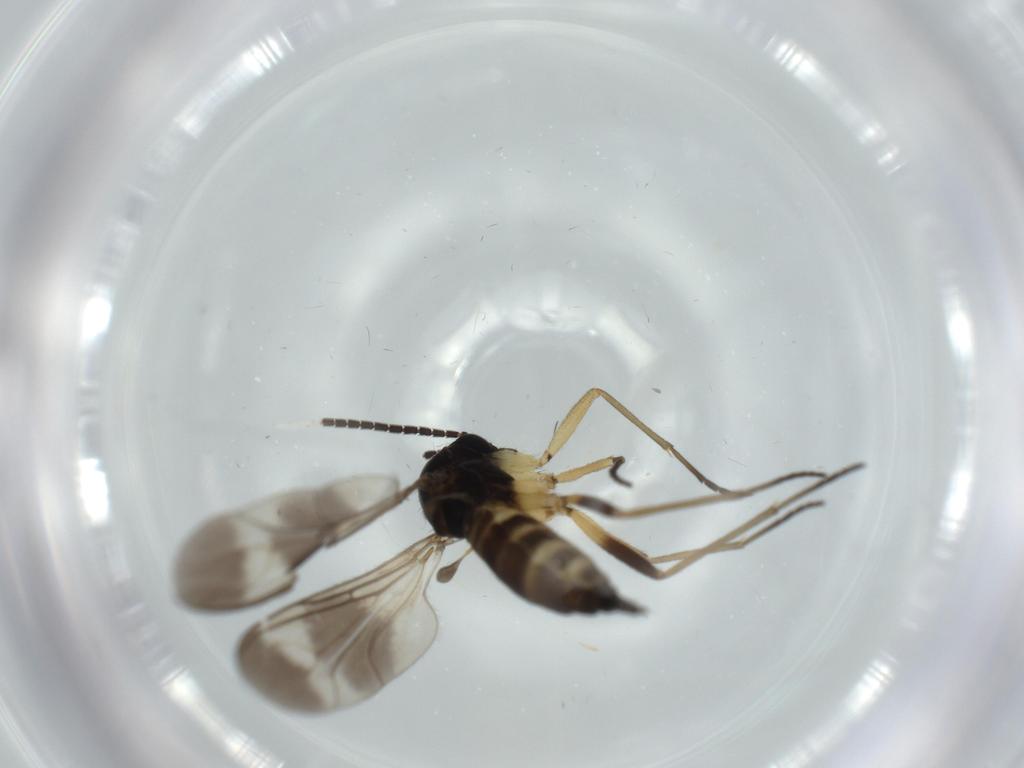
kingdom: Animalia
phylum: Arthropoda
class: Insecta
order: Diptera
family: Sciaridae
